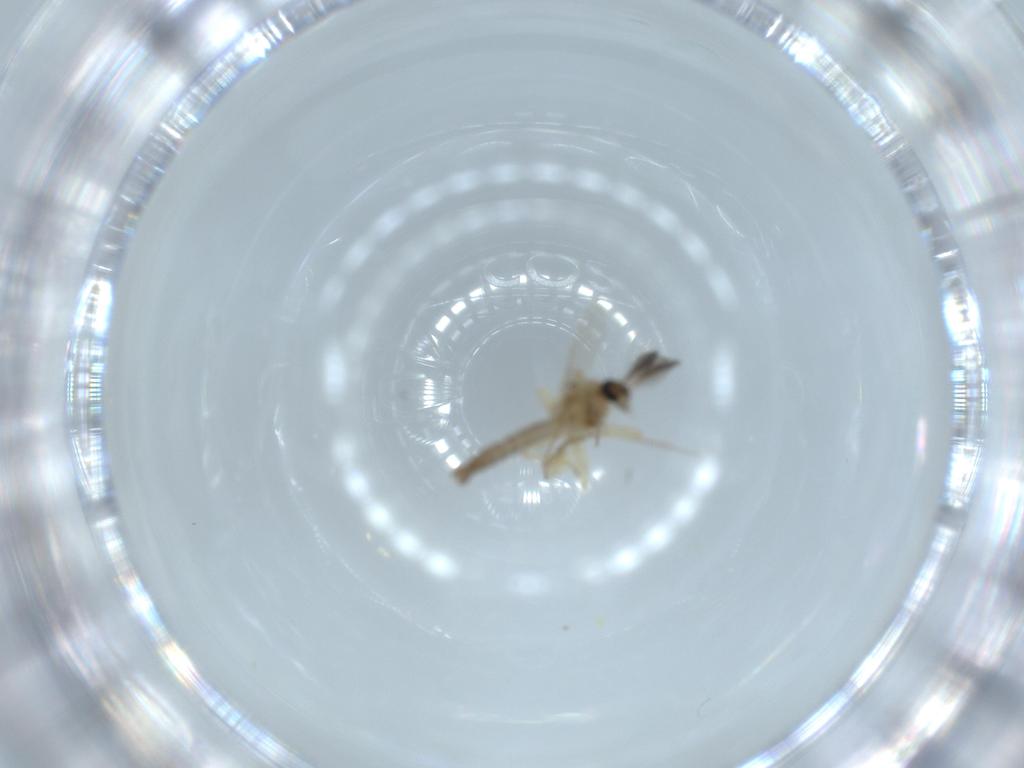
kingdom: Animalia
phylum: Arthropoda
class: Insecta
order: Diptera
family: Ceratopogonidae
